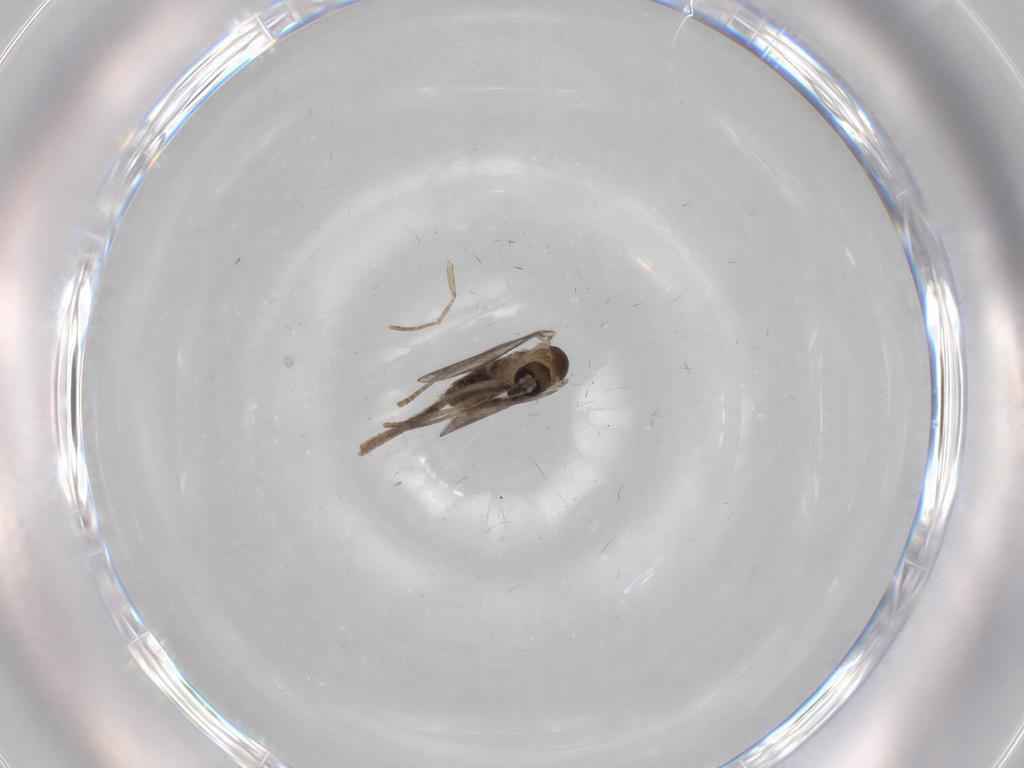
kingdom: Animalia
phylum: Arthropoda
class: Insecta
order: Diptera
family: Psychodidae
